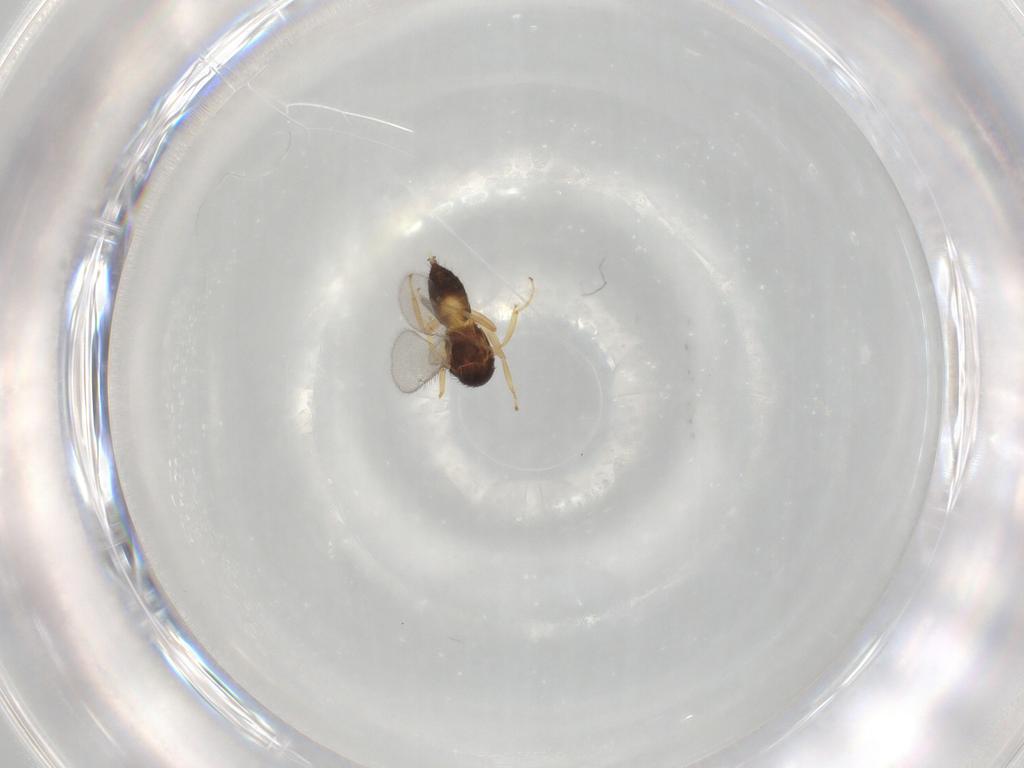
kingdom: Animalia
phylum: Arthropoda
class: Insecta
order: Hymenoptera
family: Eulophidae
